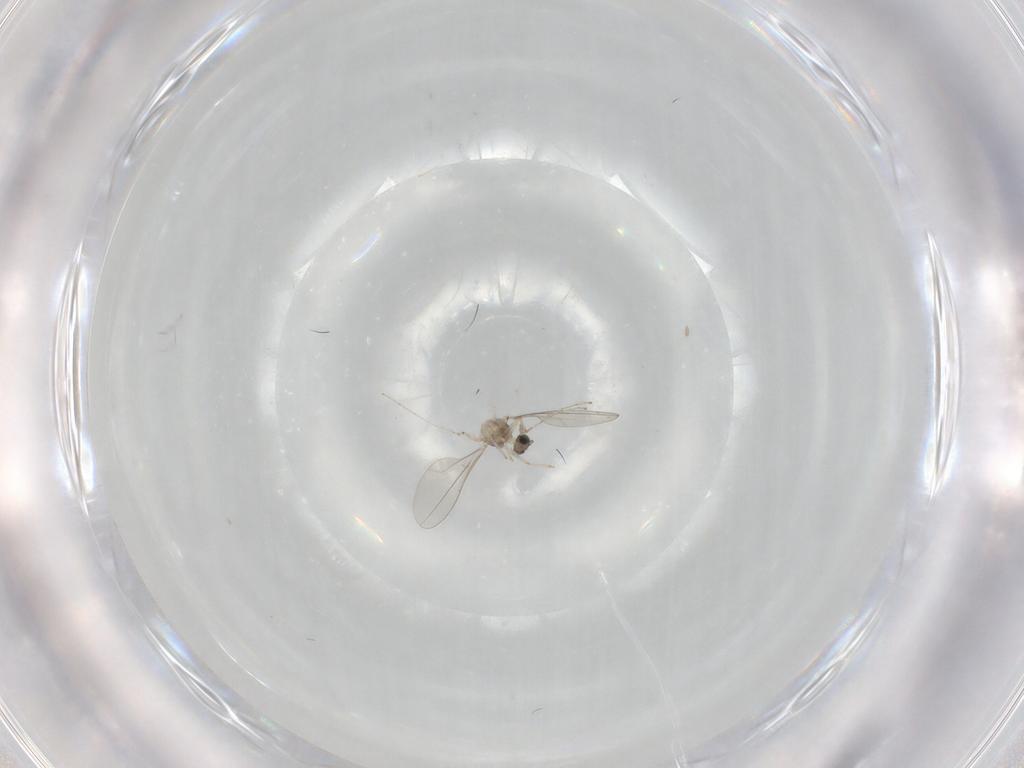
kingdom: Animalia
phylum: Arthropoda
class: Insecta
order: Diptera
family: Cecidomyiidae
